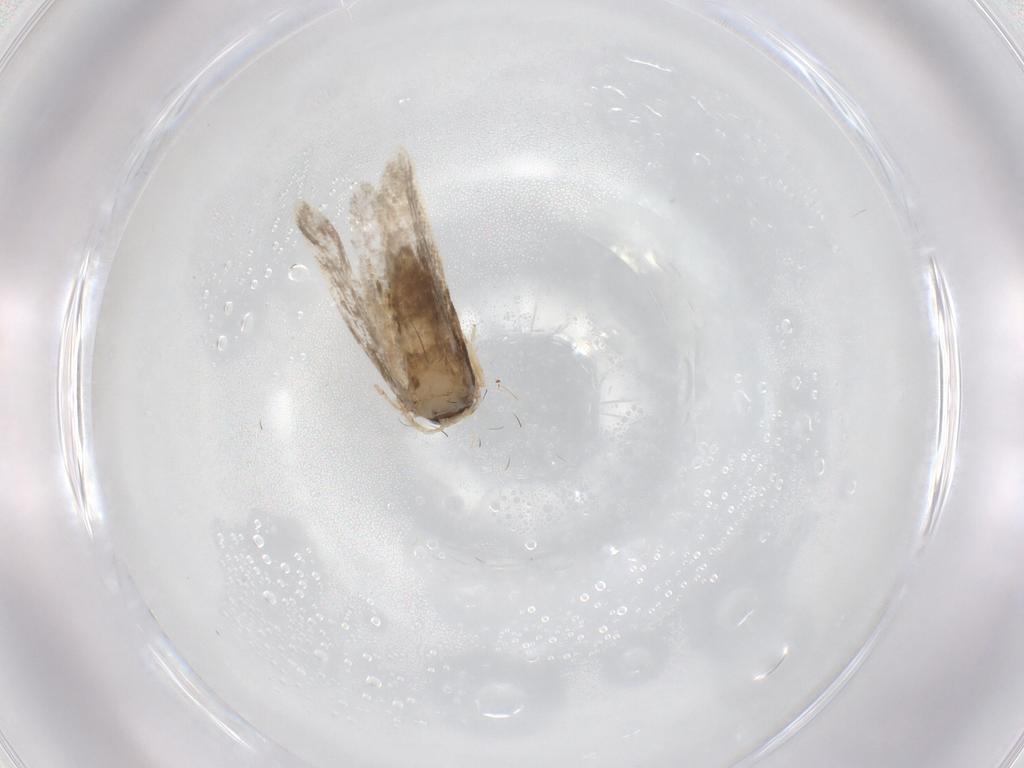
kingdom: Animalia
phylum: Arthropoda
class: Insecta
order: Lepidoptera
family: Psychidae
